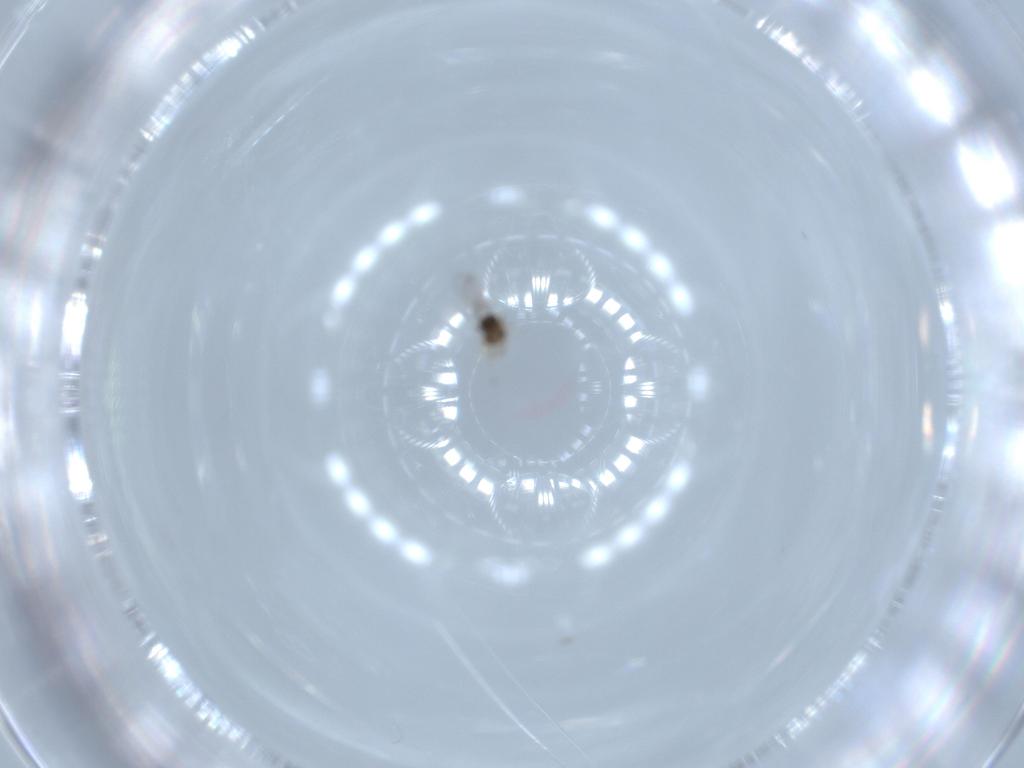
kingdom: Animalia
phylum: Arthropoda
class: Insecta
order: Hymenoptera
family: Trichogrammatidae
